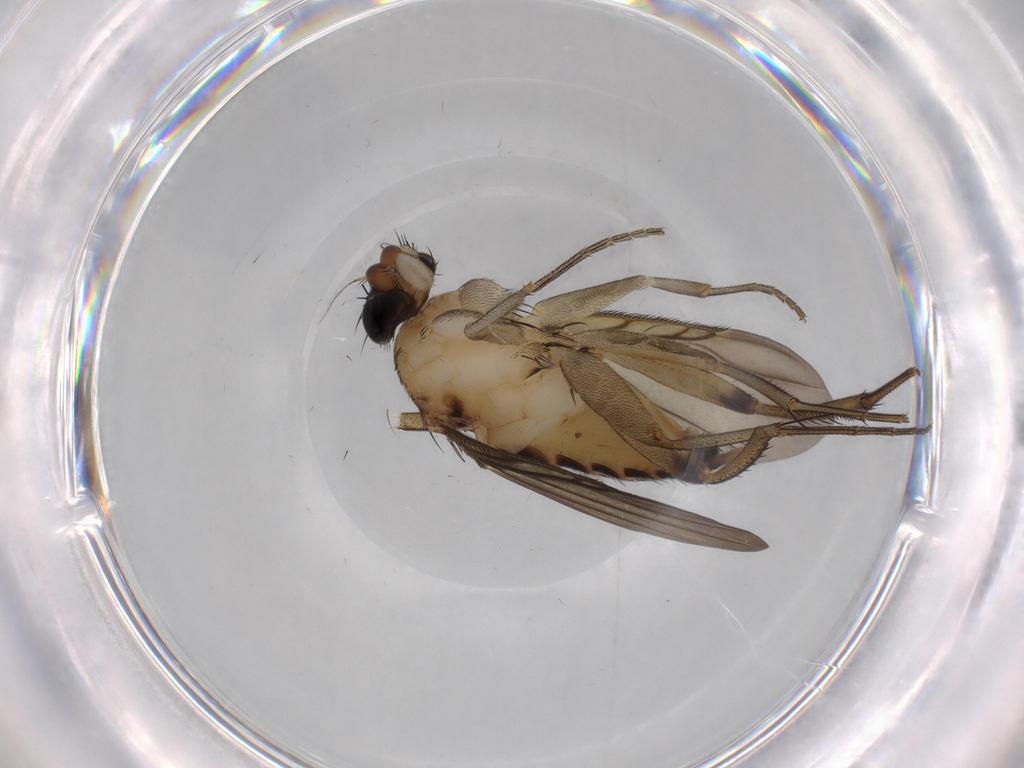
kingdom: Animalia
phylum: Arthropoda
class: Insecta
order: Diptera
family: Phoridae
